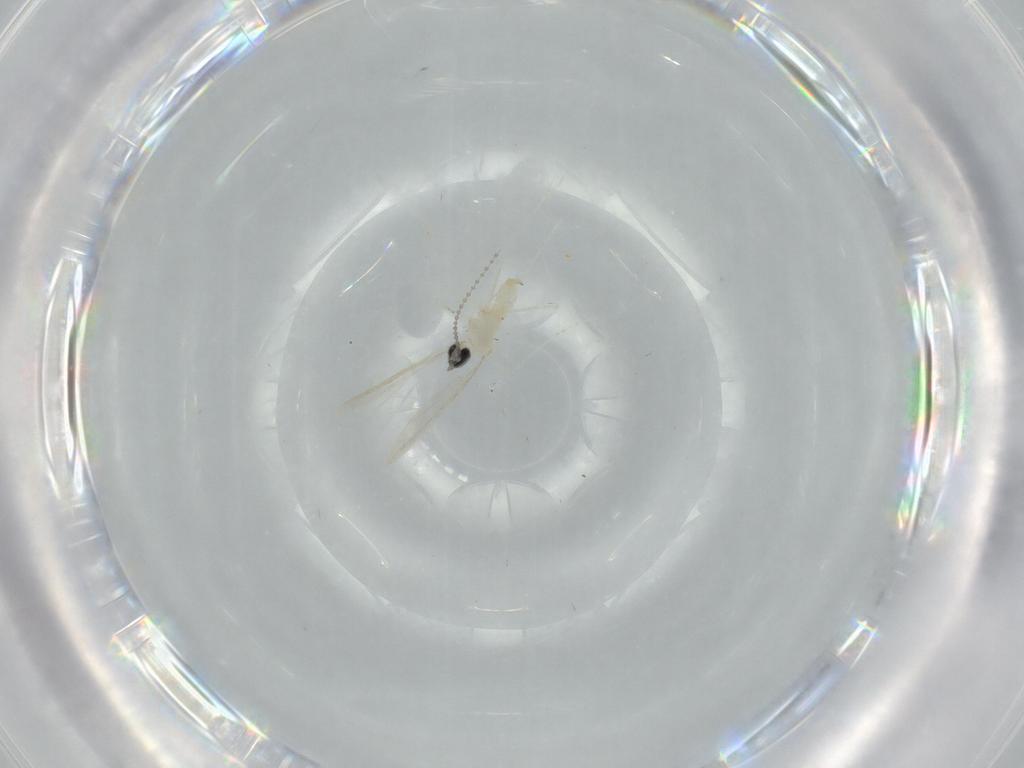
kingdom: Animalia
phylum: Arthropoda
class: Insecta
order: Diptera
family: Cecidomyiidae
